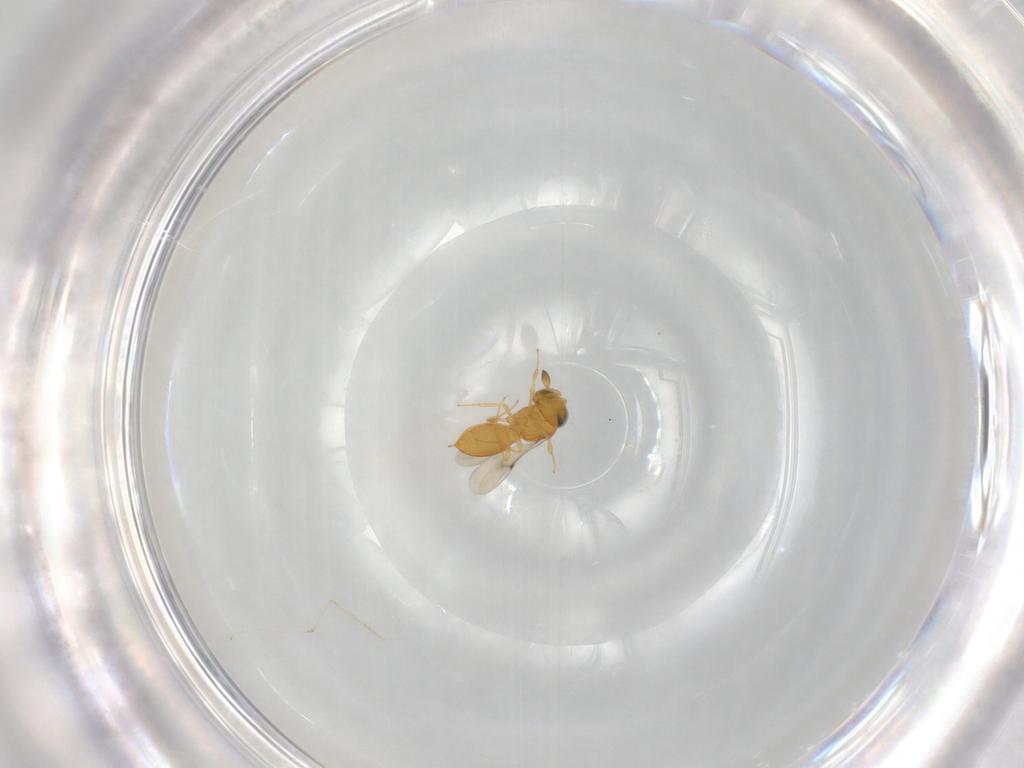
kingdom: Animalia
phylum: Arthropoda
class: Insecta
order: Hymenoptera
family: Scelionidae
